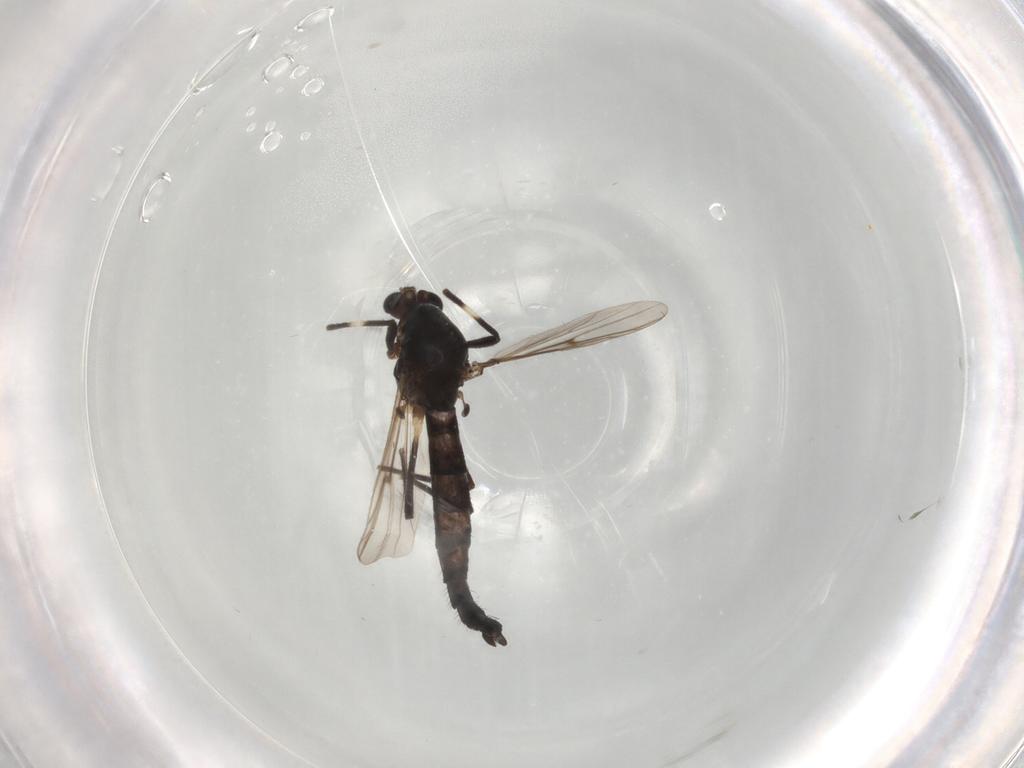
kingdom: Animalia
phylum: Arthropoda
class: Insecta
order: Diptera
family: Cecidomyiidae
